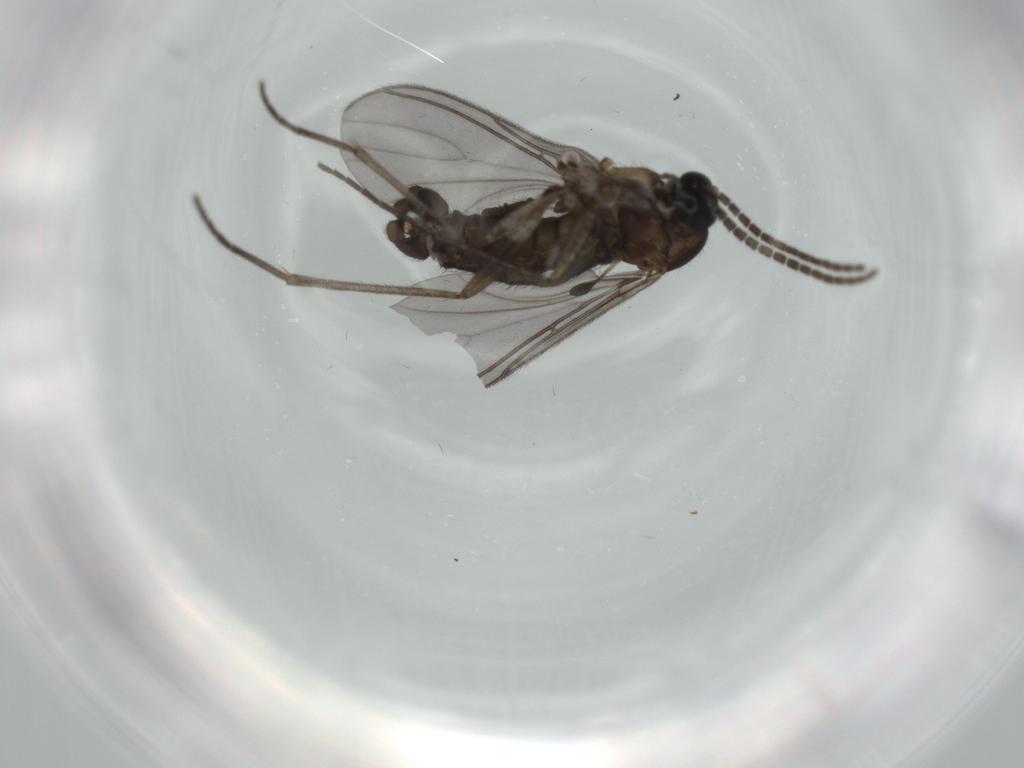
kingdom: Animalia
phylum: Arthropoda
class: Insecta
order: Diptera
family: Sciaridae
